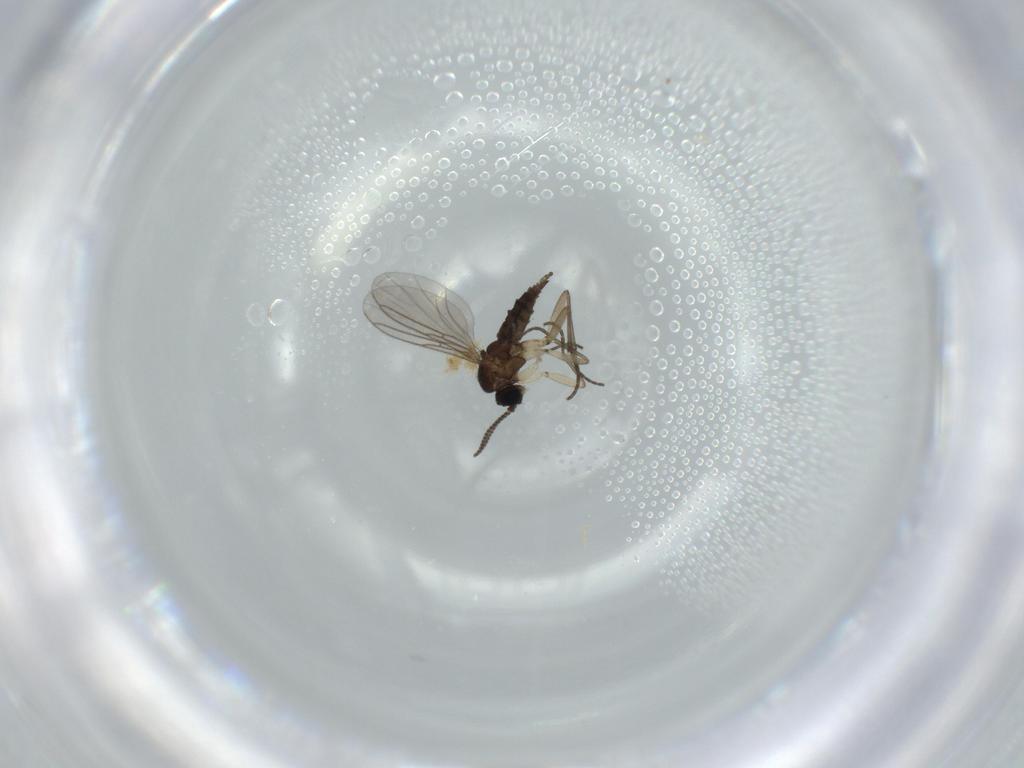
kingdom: Animalia
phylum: Arthropoda
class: Insecta
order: Diptera
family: Sciaridae
